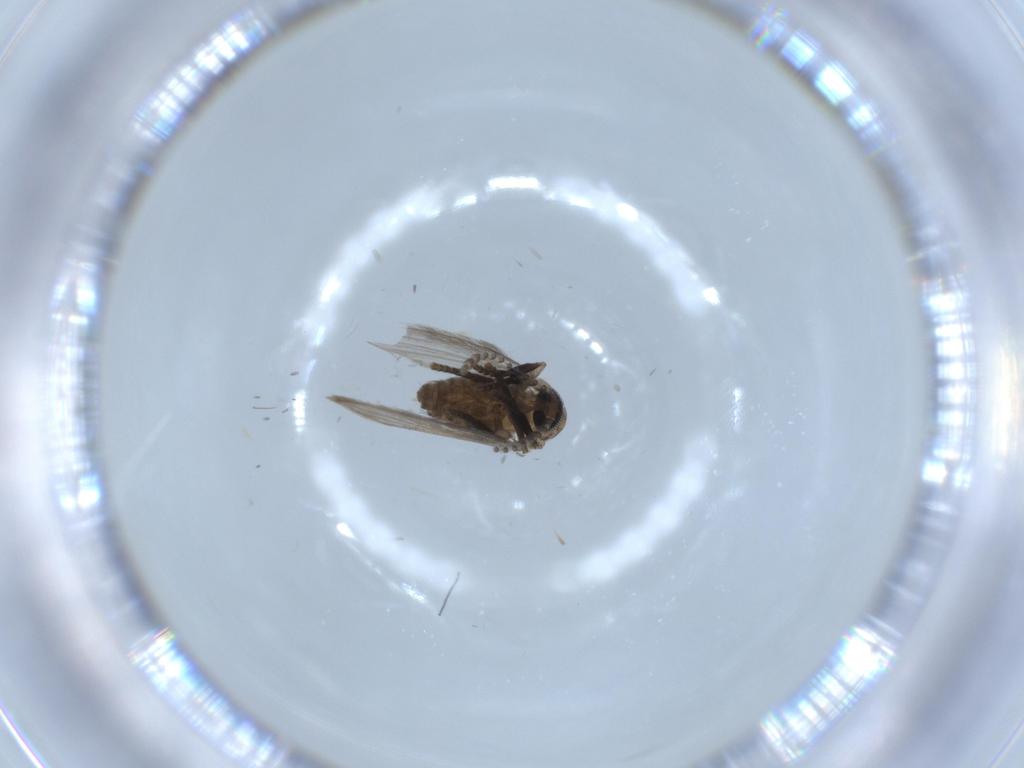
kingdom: Animalia
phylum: Arthropoda
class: Insecta
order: Diptera
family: Psychodidae
